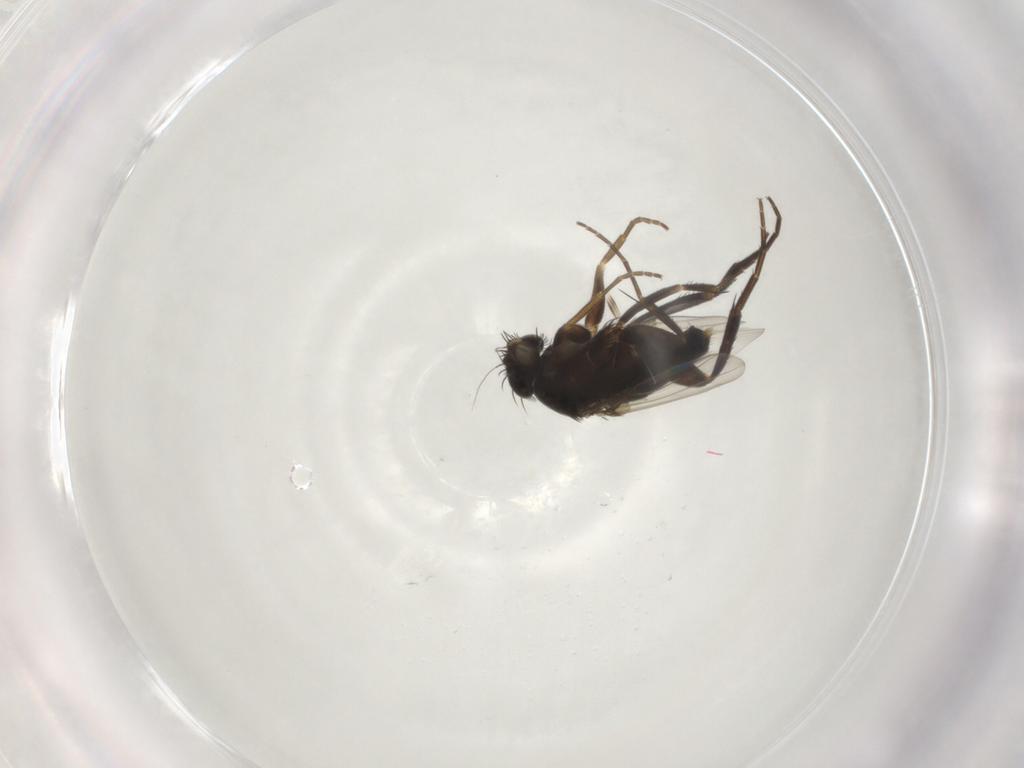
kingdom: Animalia
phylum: Arthropoda
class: Insecta
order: Diptera
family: Phoridae
